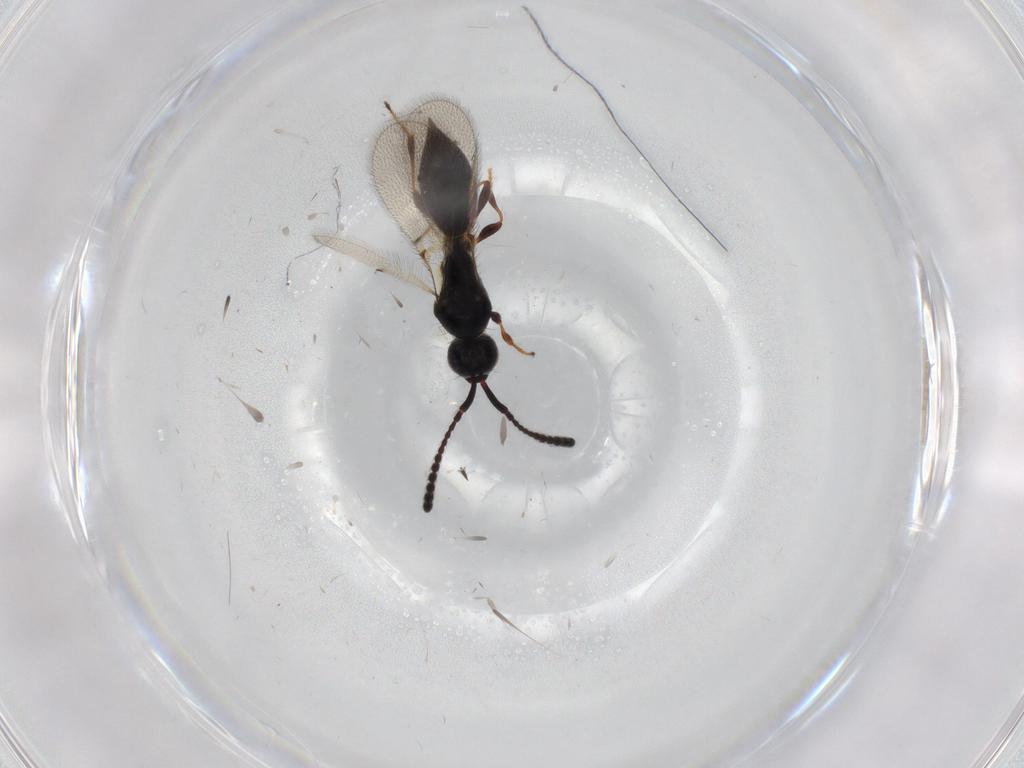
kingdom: Animalia
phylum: Arthropoda
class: Insecta
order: Hymenoptera
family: Diapriidae
